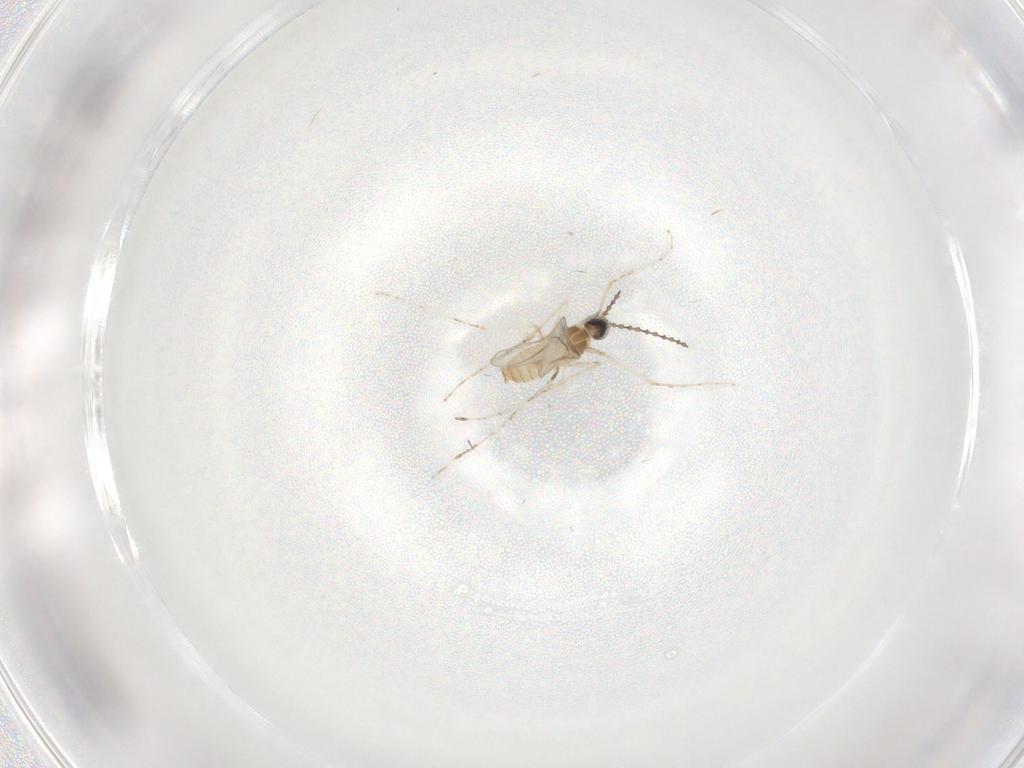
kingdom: Animalia
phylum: Arthropoda
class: Insecta
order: Diptera
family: Cecidomyiidae
